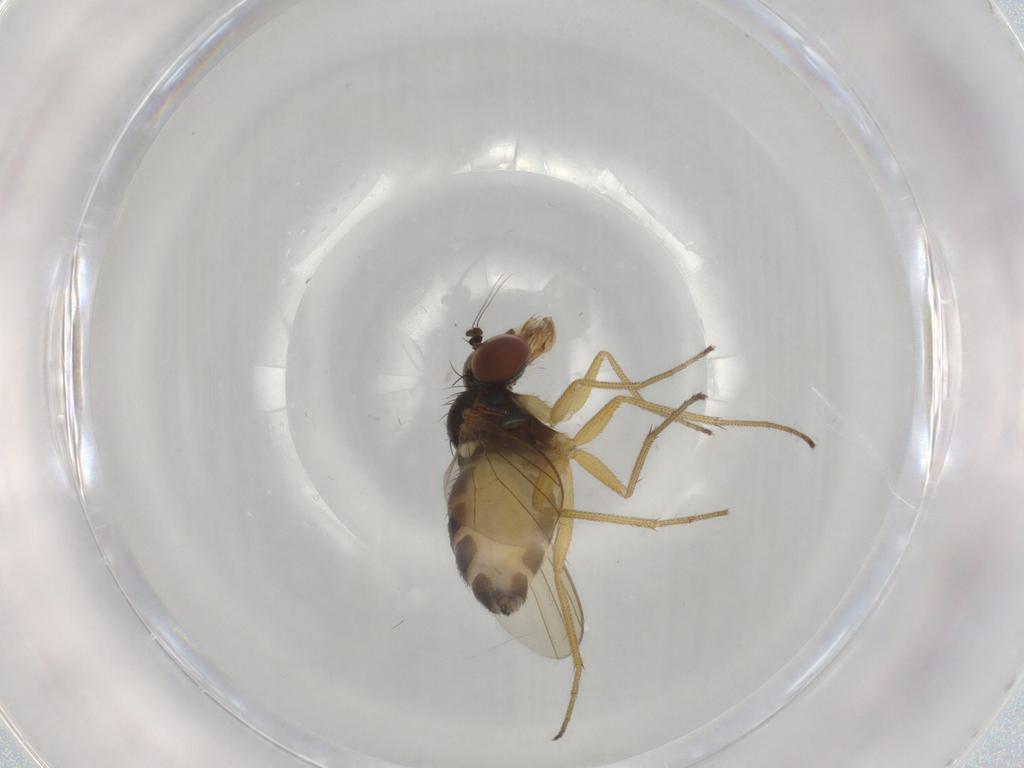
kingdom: Animalia
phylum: Arthropoda
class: Insecta
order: Diptera
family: Dolichopodidae
